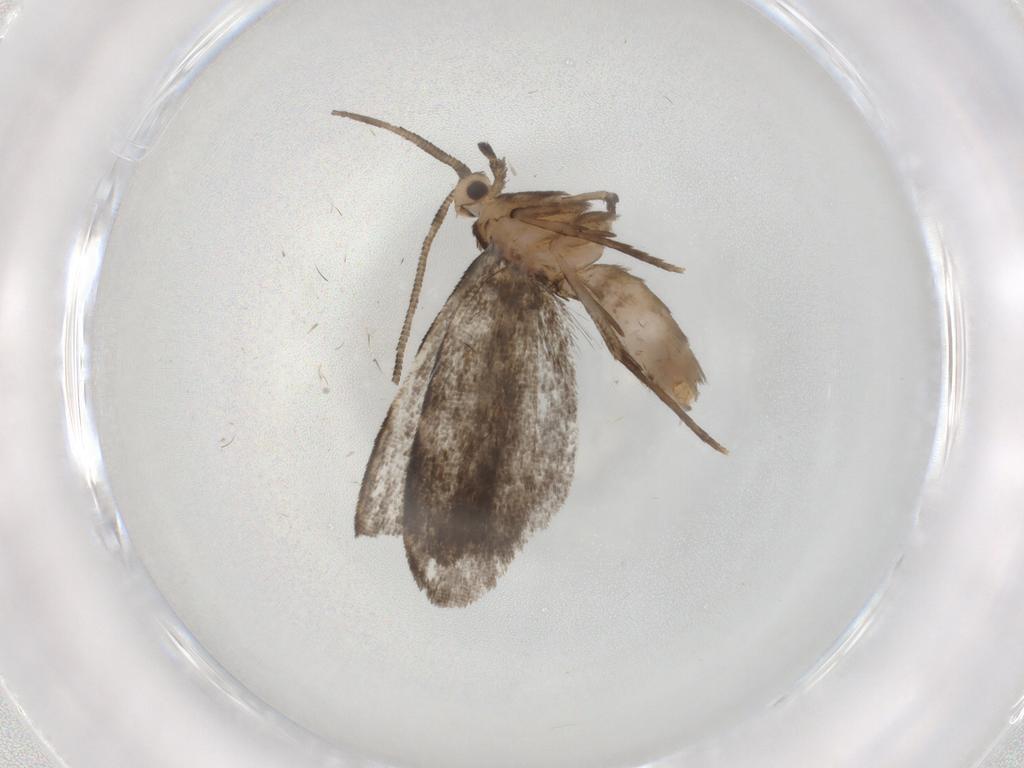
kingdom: Animalia
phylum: Arthropoda
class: Insecta
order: Lepidoptera
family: Dryadaulidae
